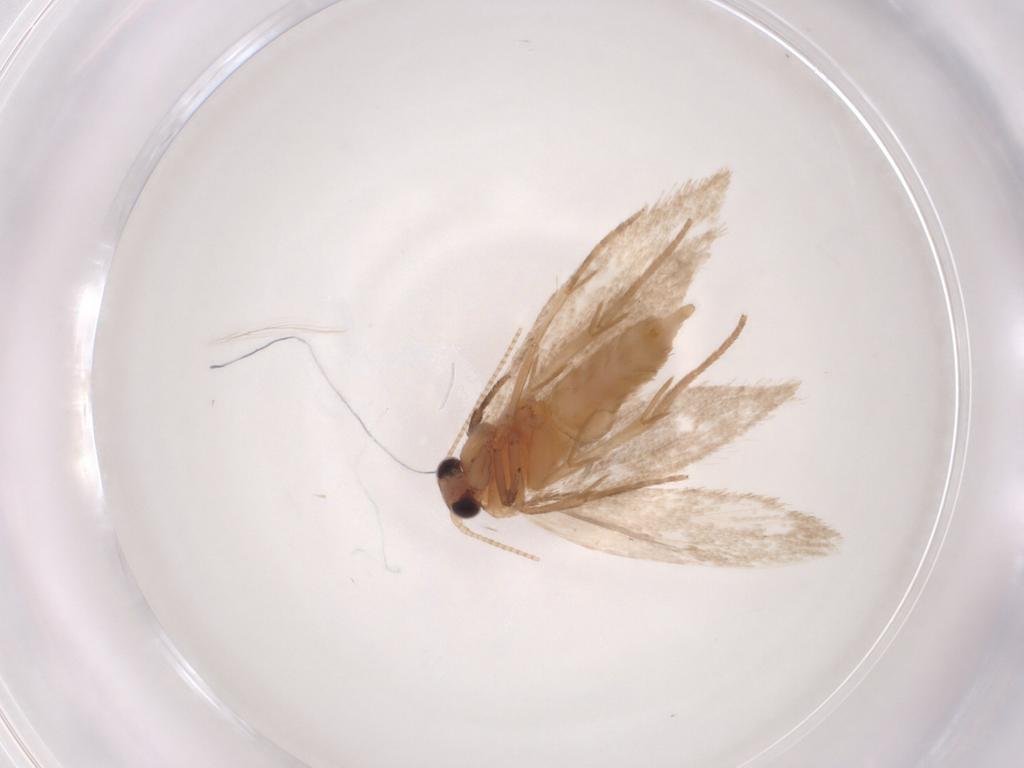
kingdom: Animalia
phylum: Arthropoda
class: Insecta
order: Lepidoptera
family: Nepticulidae
